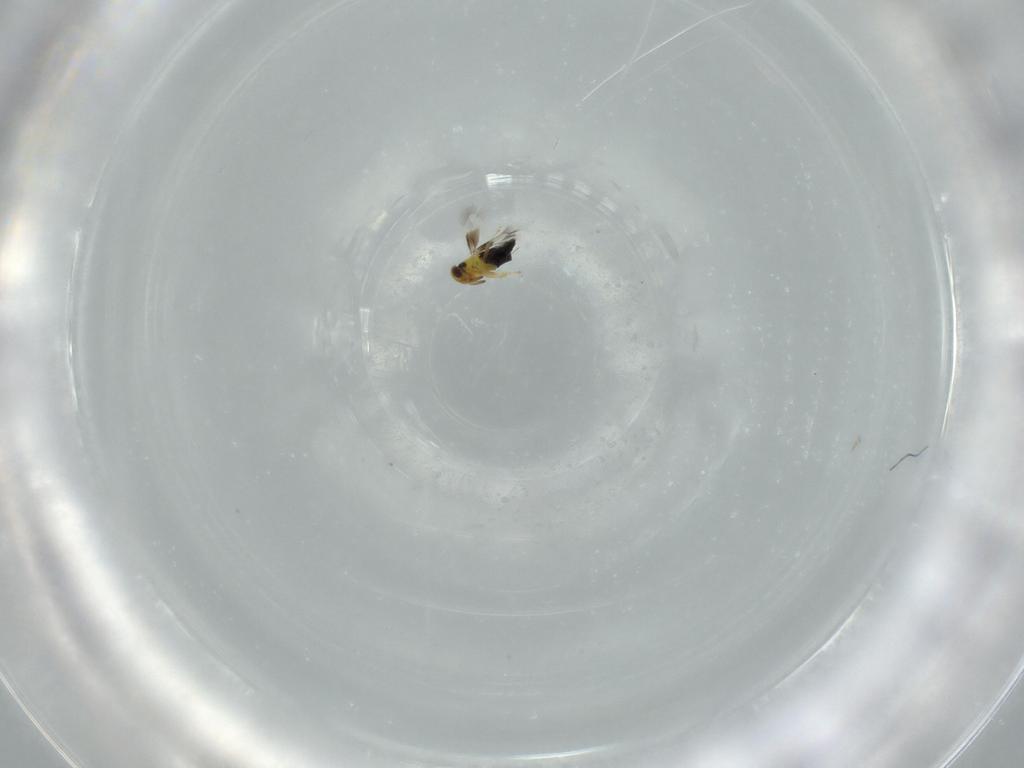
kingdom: Animalia
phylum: Arthropoda
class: Insecta
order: Hymenoptera
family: Signiphoridae
